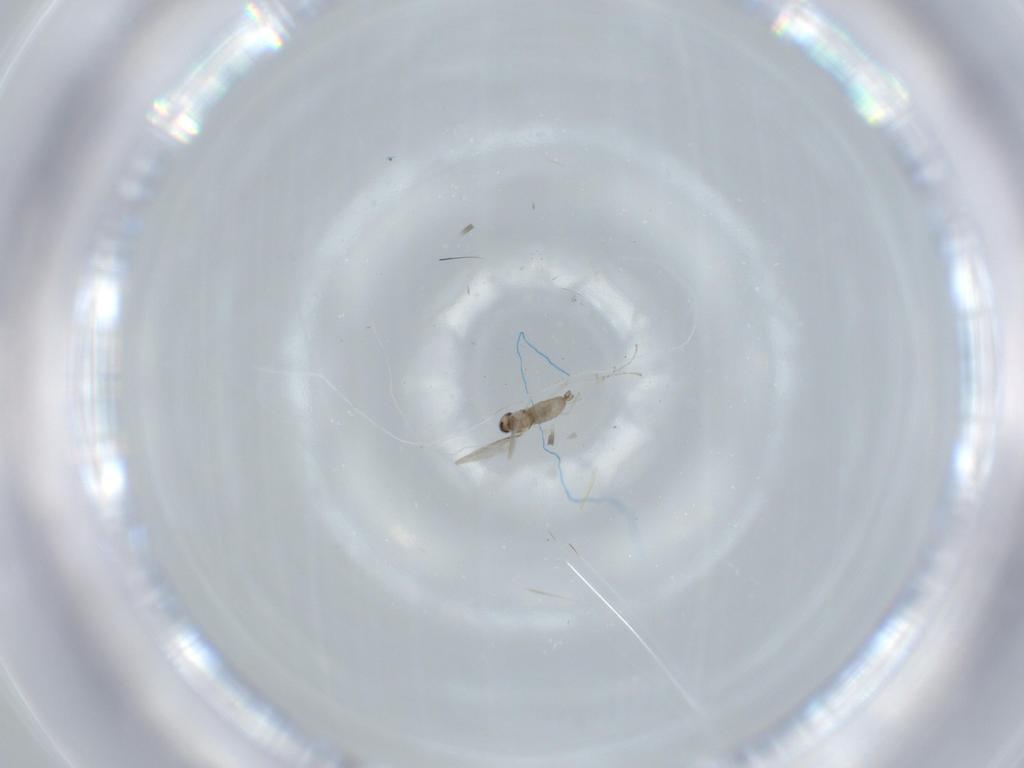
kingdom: Animalia
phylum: Arthropoda
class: Insecta
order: Diptera
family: Cecidomyiidae
